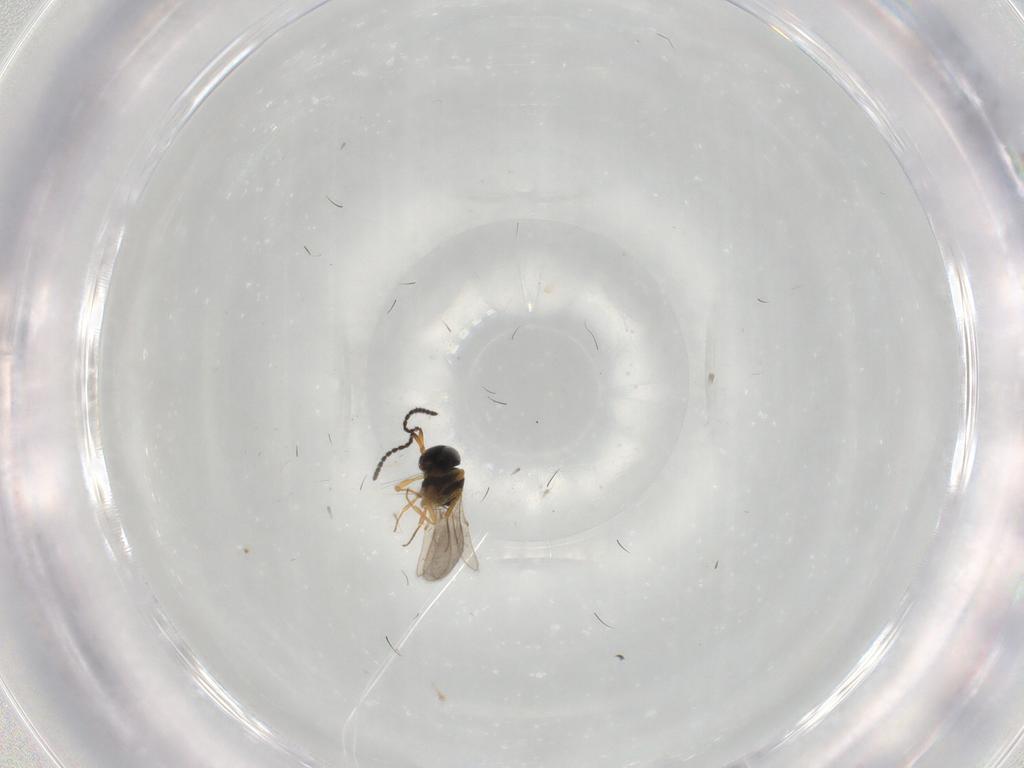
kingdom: Animalia
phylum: Arthropoda
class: Insecta
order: Hymenoptera
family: Scelionidae
